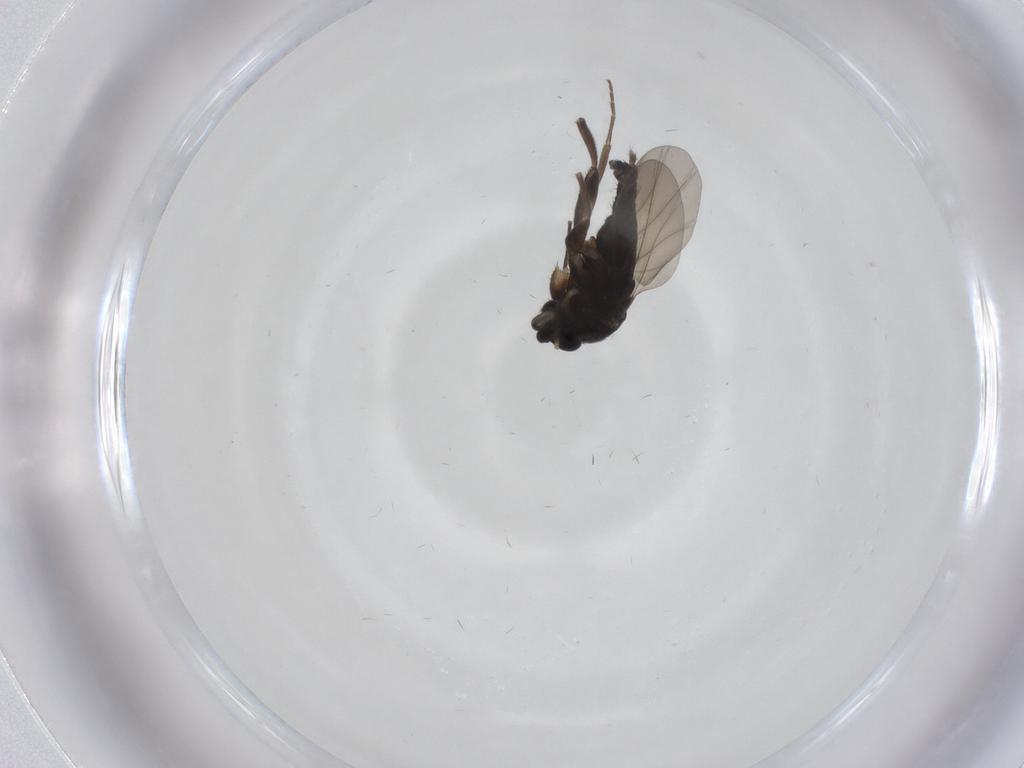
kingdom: Animalia
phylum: Arthropoda
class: Insecta
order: Diptera
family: Phoridae
